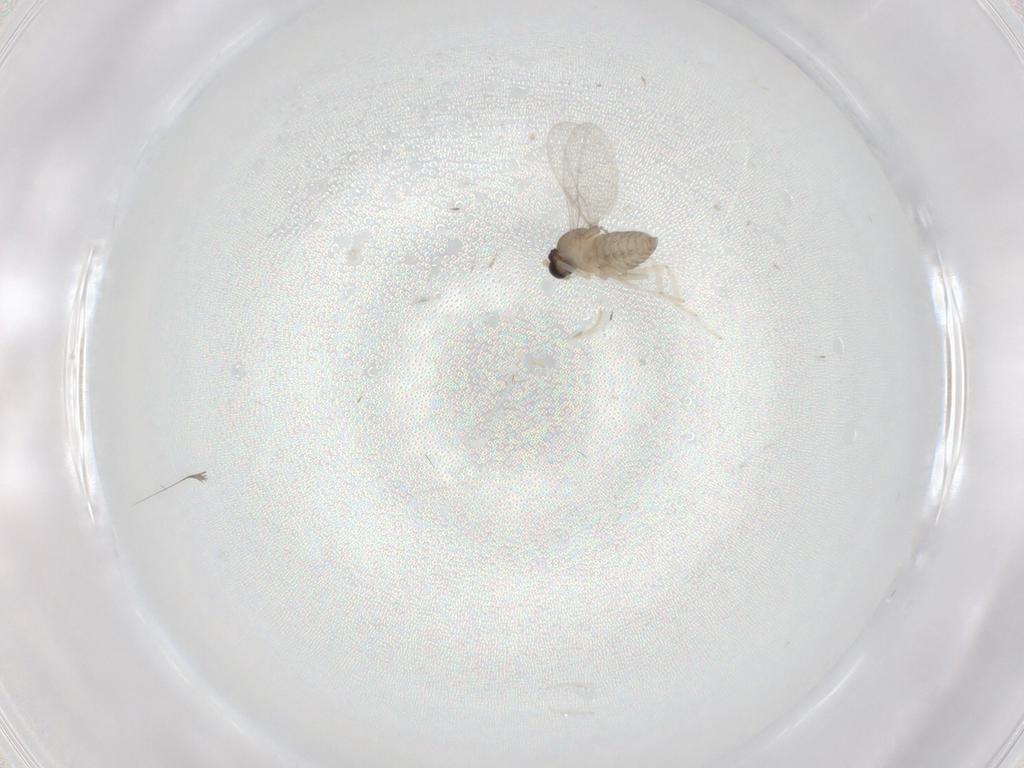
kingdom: Animalia
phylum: Arthropoda
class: Insecta
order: Diptera
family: Cecidomyiidae
